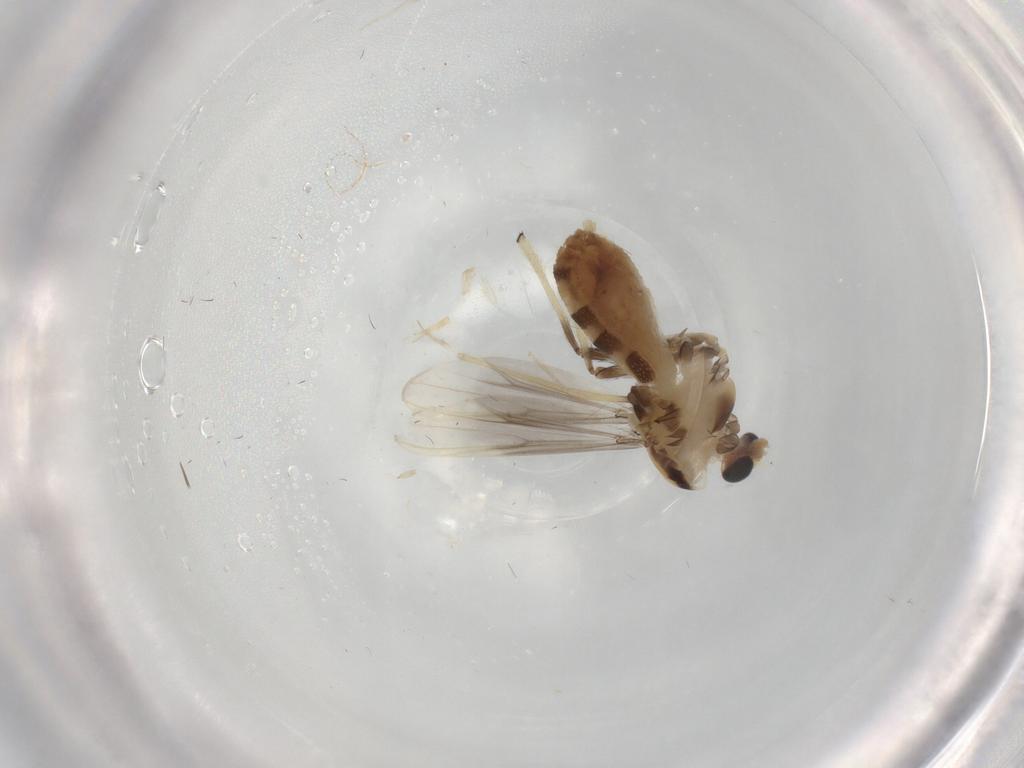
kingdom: Animalia
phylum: Arthropoda
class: Insecta
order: Diptera
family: Chironomidae
